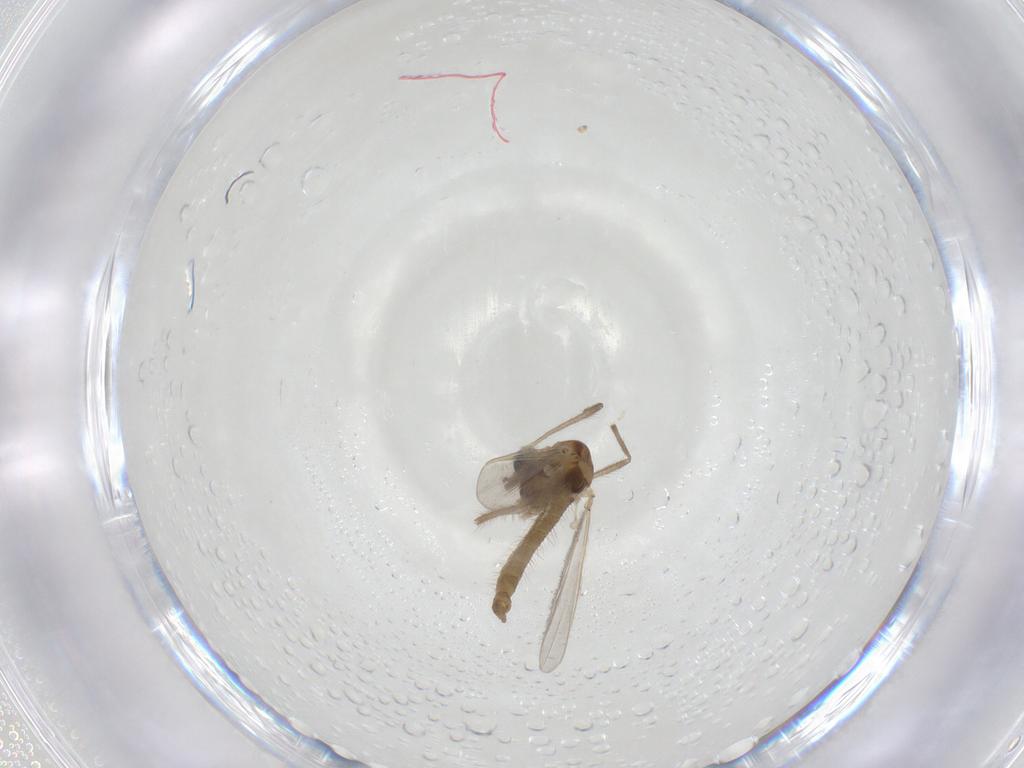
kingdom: Animalia
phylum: Arthropoda
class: Insecta
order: Diptera
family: Chironomidae
